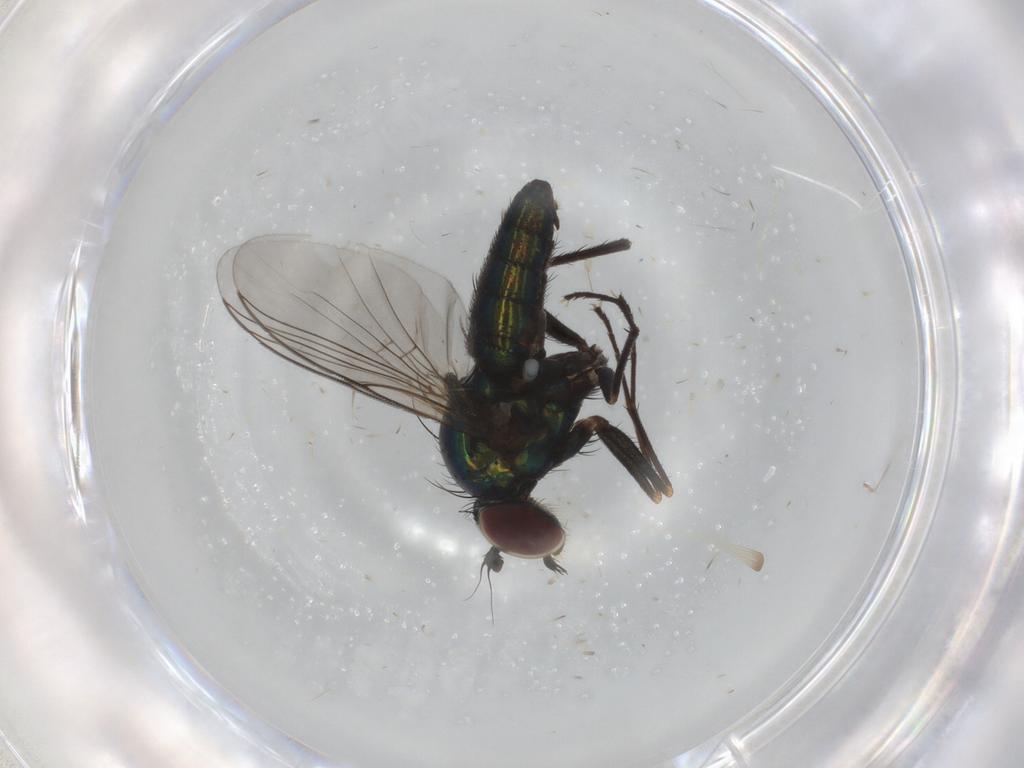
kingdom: Animalia
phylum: Arthropoda
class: Insecta
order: Diptera
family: Dolichopodidae
